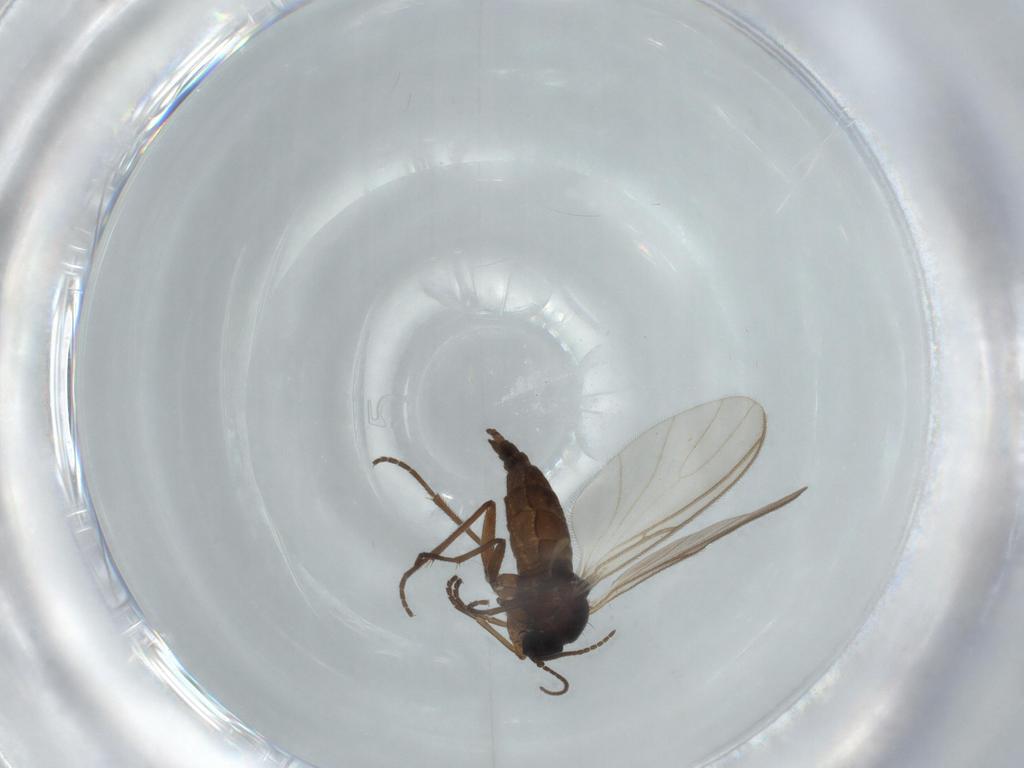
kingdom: Animalia
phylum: Arthropoda
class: Insecta
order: Diptera
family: Sciaridae
